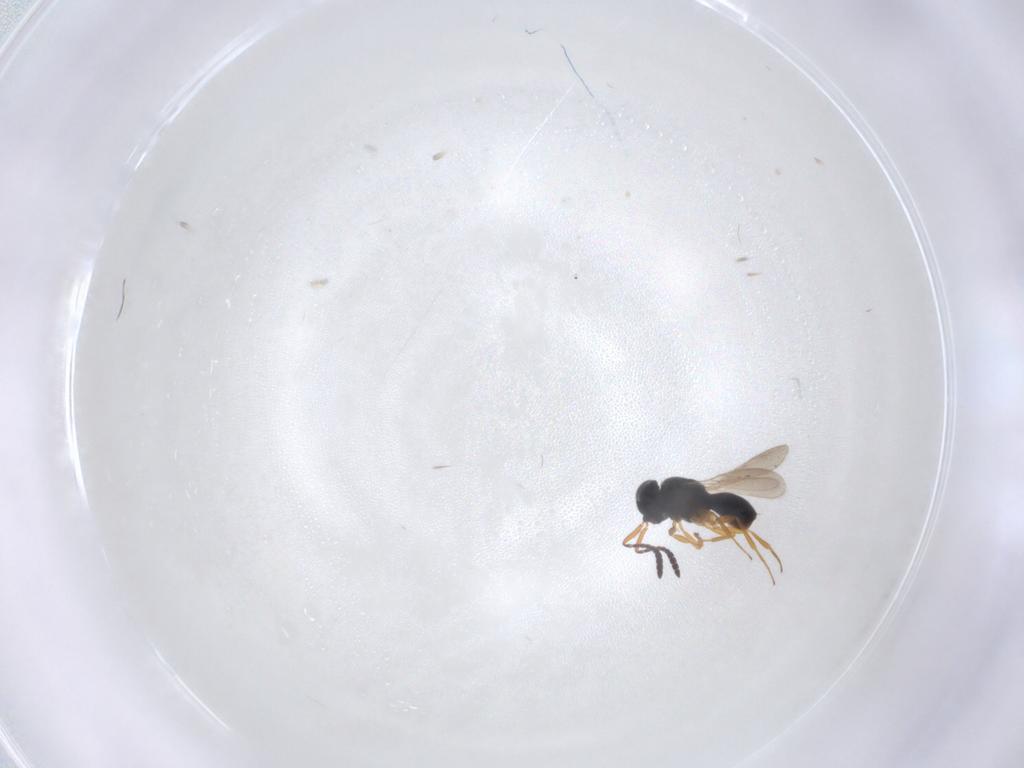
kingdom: Animalia
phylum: Arthropoda
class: Insecta
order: Hymenoptera
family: Scelionidae
